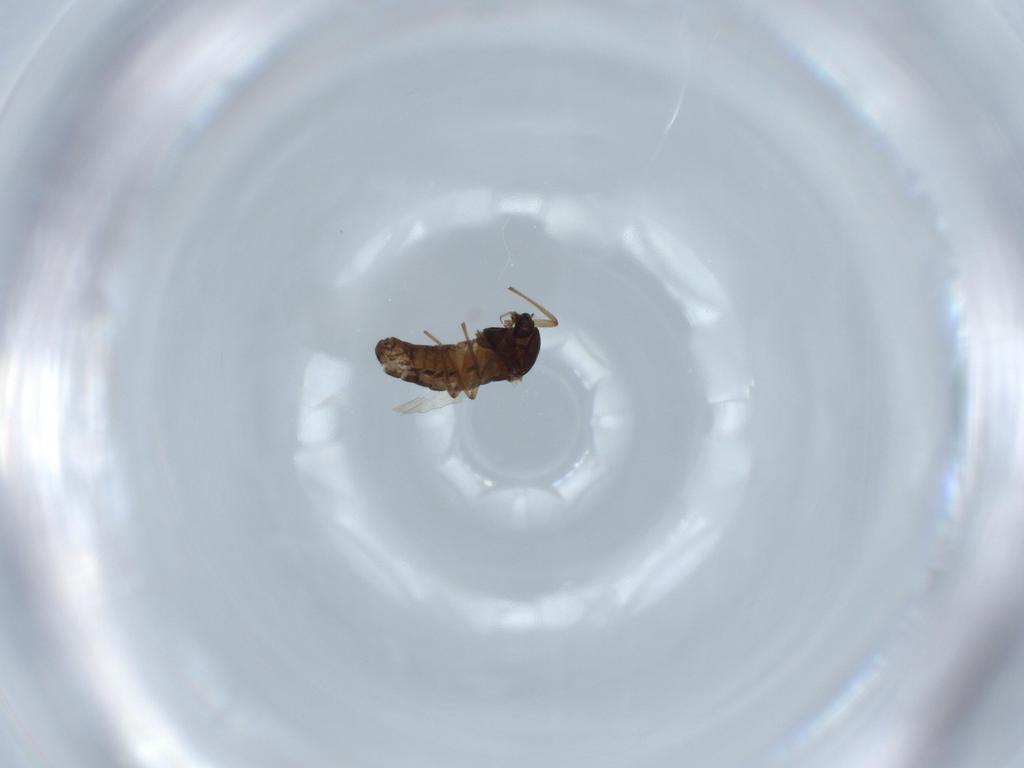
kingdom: Animalia
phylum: Arthropoda
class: Insecta
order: Diptera
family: Chironomidae
